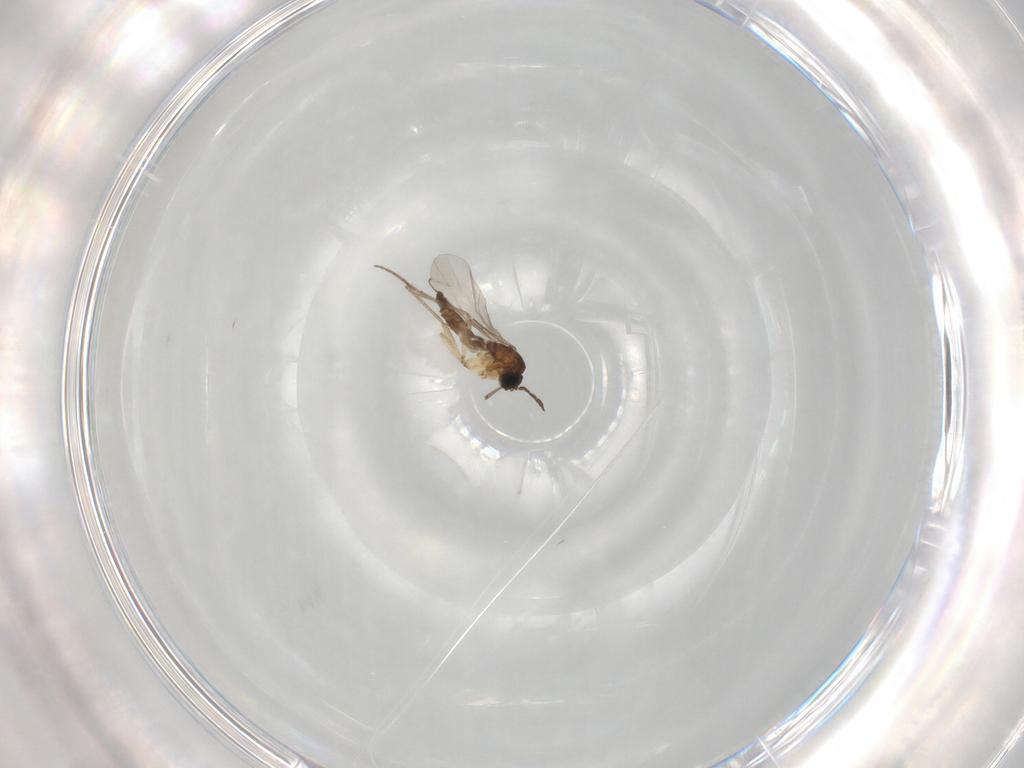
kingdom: Animalia
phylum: Arthropoda
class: Insecta
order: Diptera
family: Sciaridae
